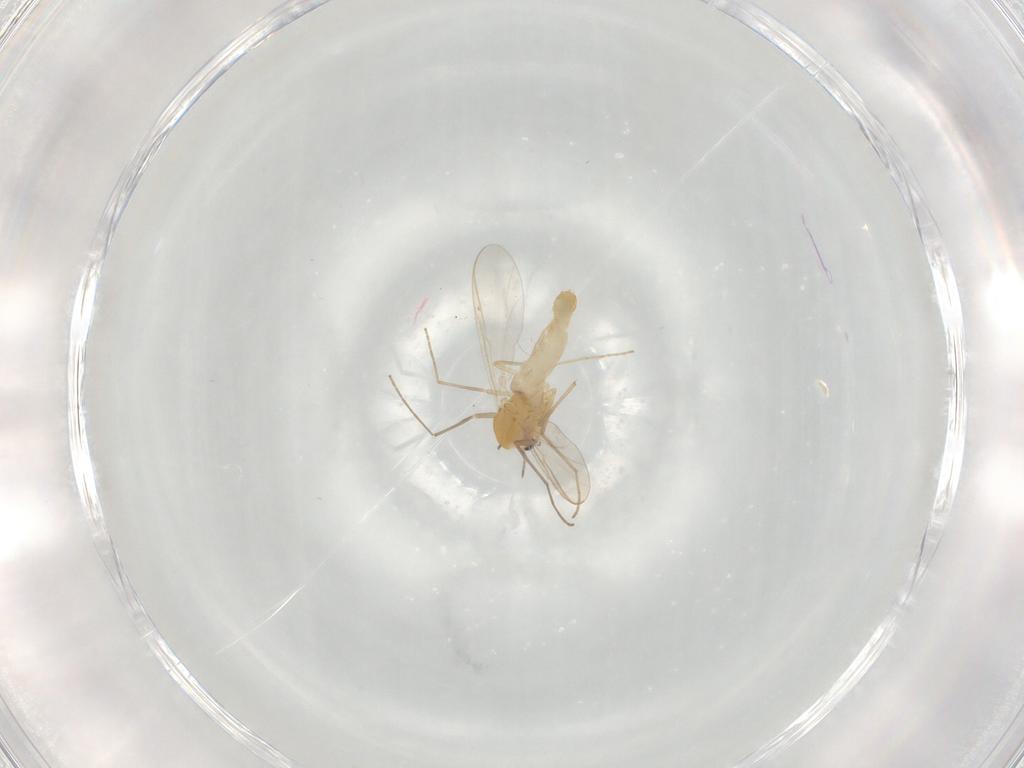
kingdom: Animalia
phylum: Arthropoda
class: Insecta
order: Diptera
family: Chironomidae
